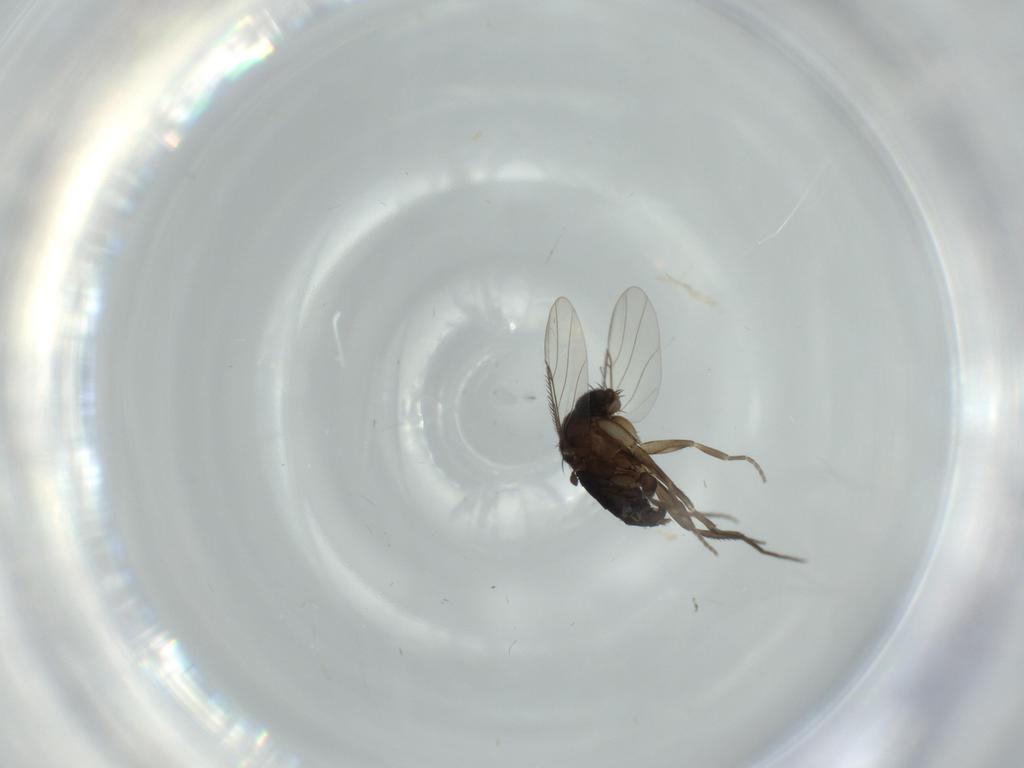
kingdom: Animalia
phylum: Arthropoda
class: Insecta
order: Diptera
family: Phoridae
